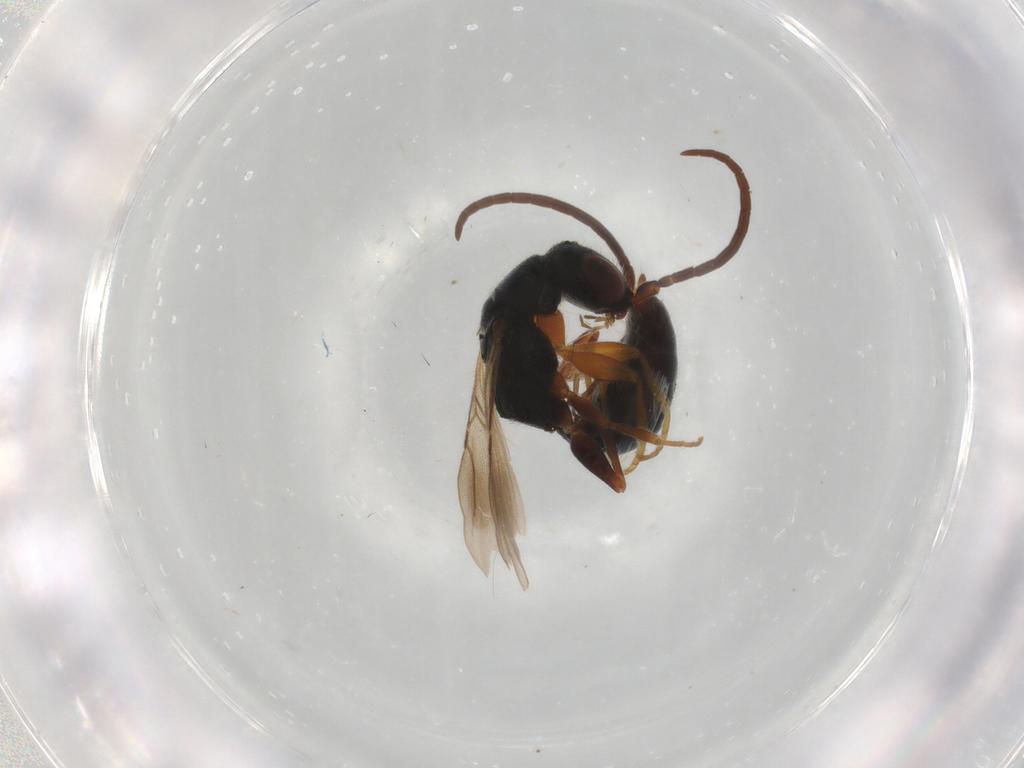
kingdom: Animalia
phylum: Arthropoda
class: Insecta
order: Hymenoptera
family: Bethylidae
